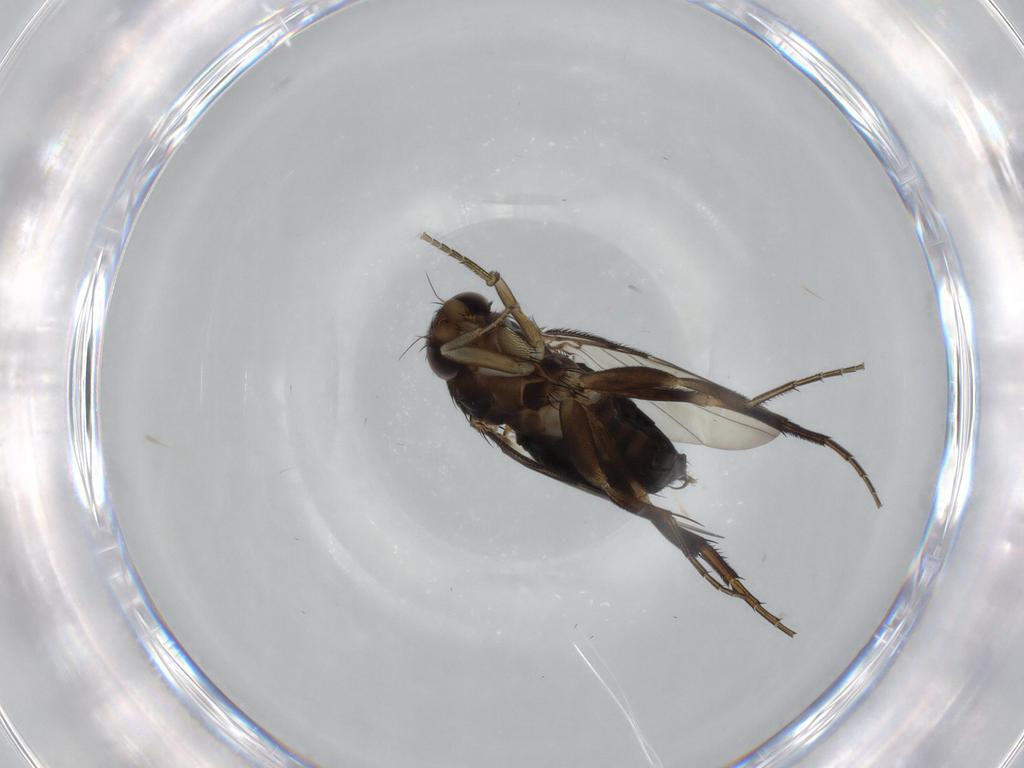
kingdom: Animalia
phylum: Arthropoda
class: Insecta
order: Diptera
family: Phoridae
